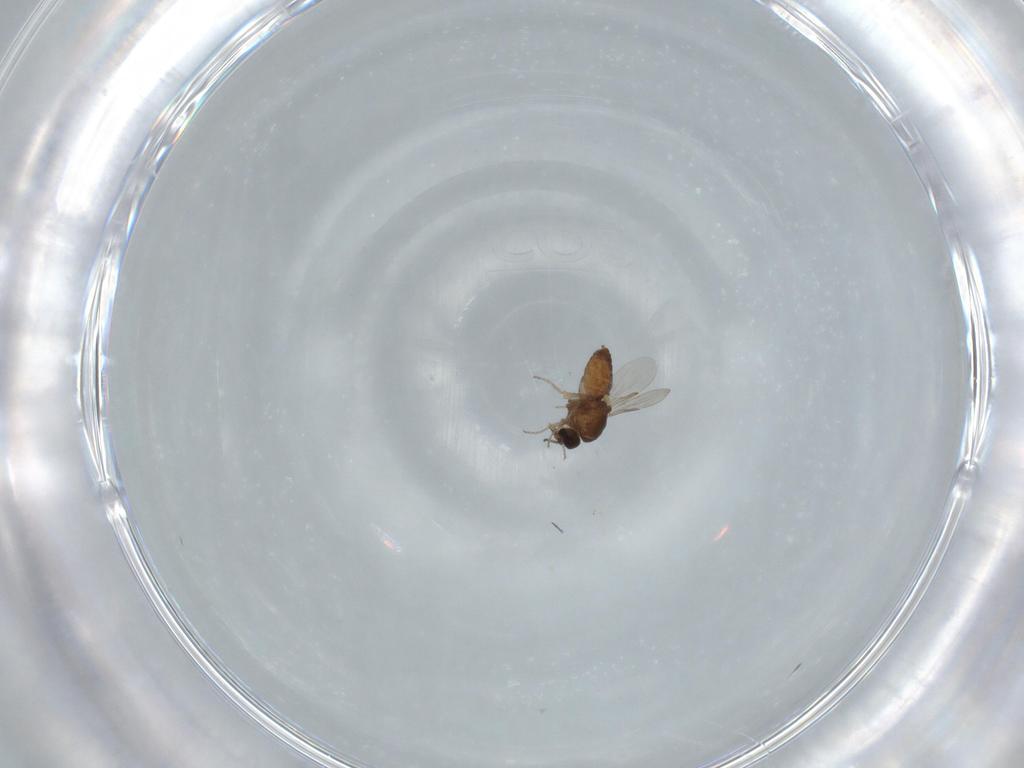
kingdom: Animalia
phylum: Arthropoda
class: Insecta
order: Diptera
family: Ceratopogonidae
